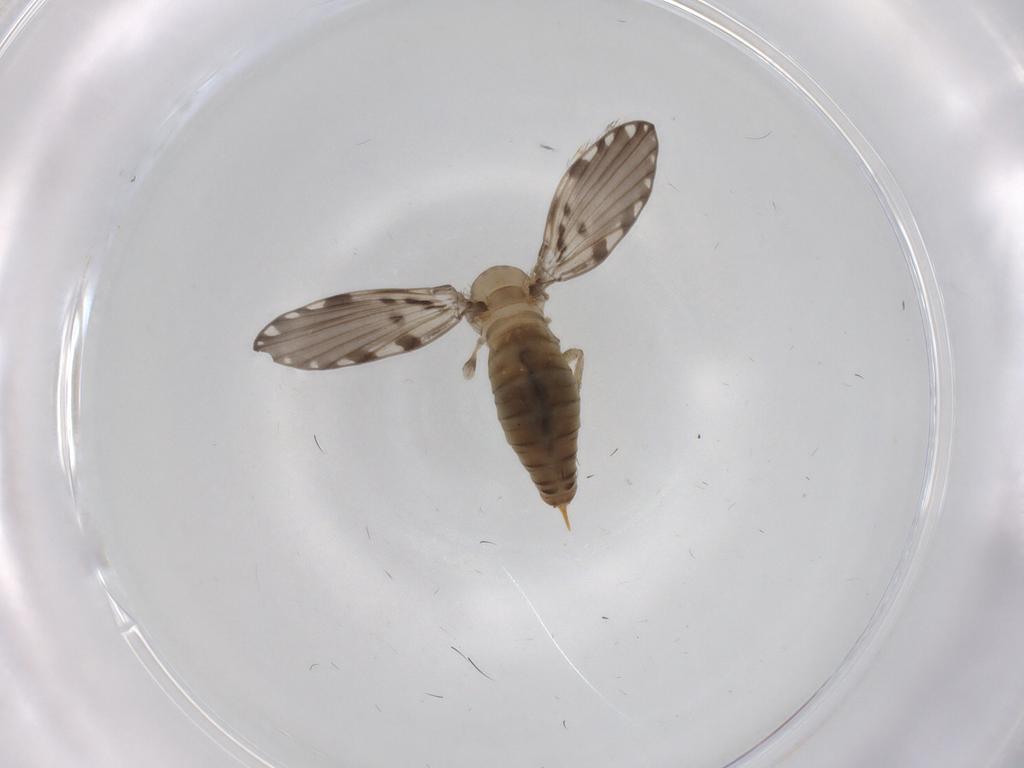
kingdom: Animalia
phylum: Arthropoda
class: Insecta
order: Diptera
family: Psychodidae
